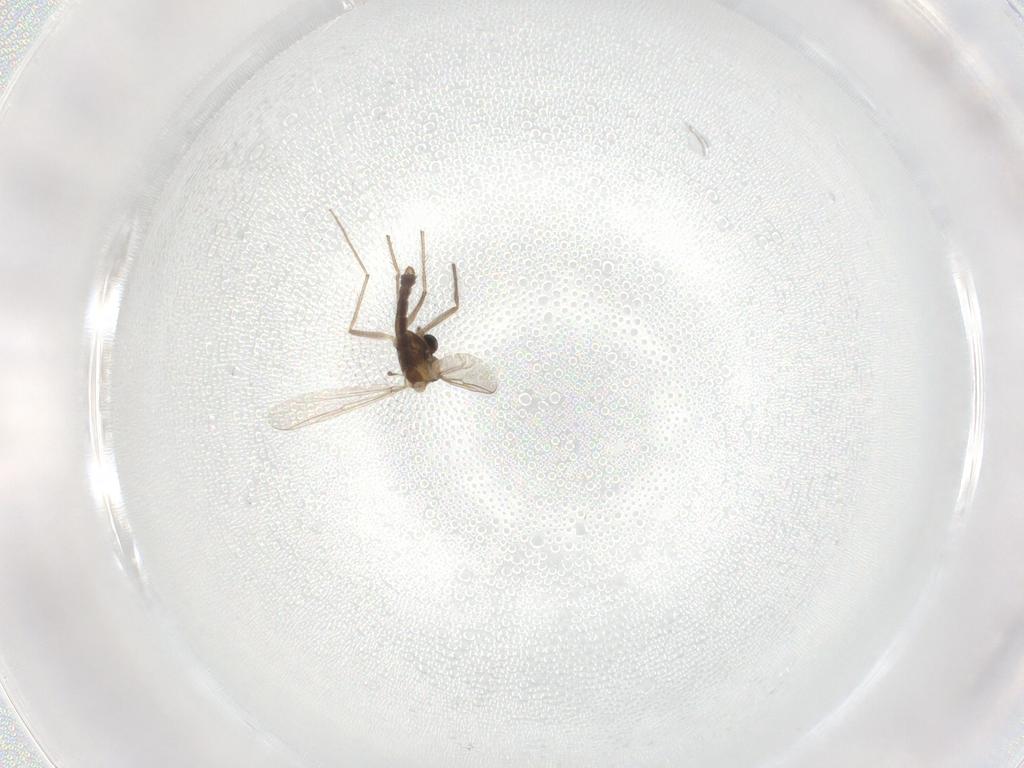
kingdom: Animalia
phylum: Arthropoda
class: Insecta
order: Diptera
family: Chironomidae
